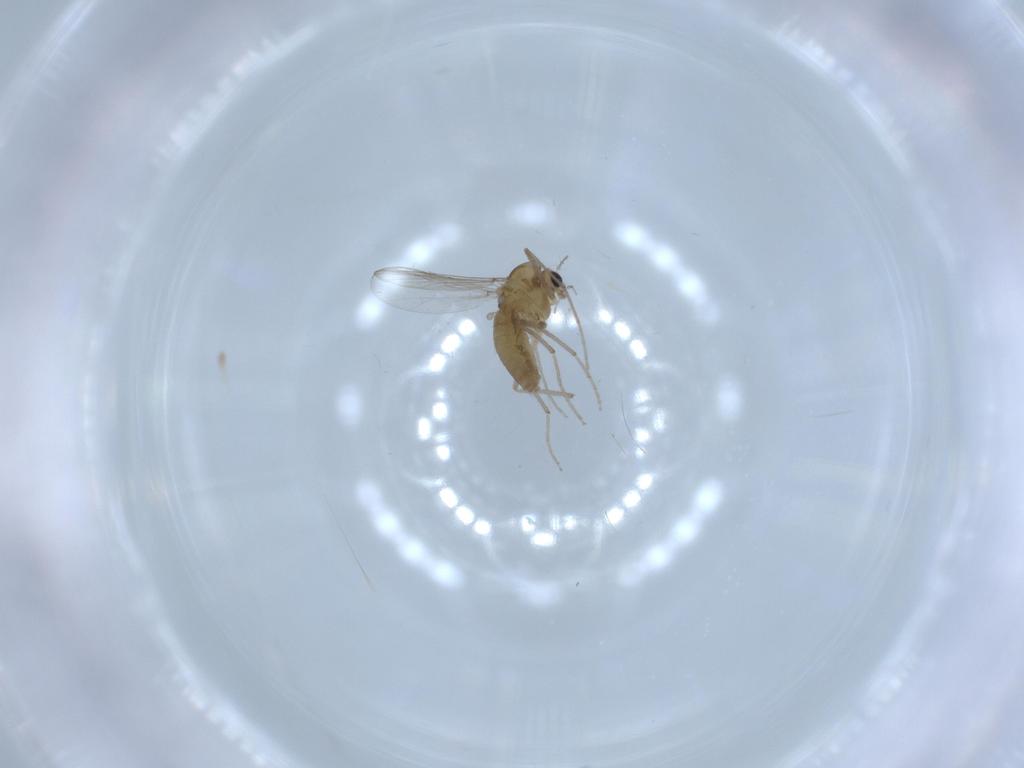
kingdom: Animalia
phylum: Arthropoda
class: Insecta
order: Diptera
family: Chironomidae
